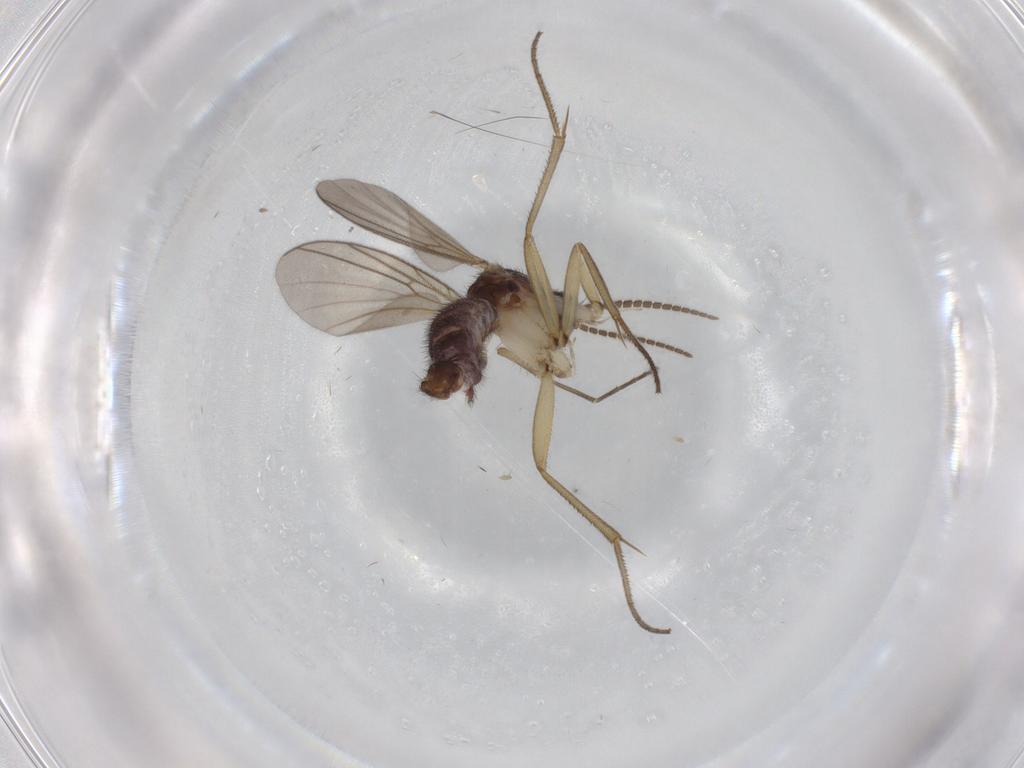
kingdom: Animalia
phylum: Arthropoda
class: Insecta
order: Diptera
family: Mycetophilidae
